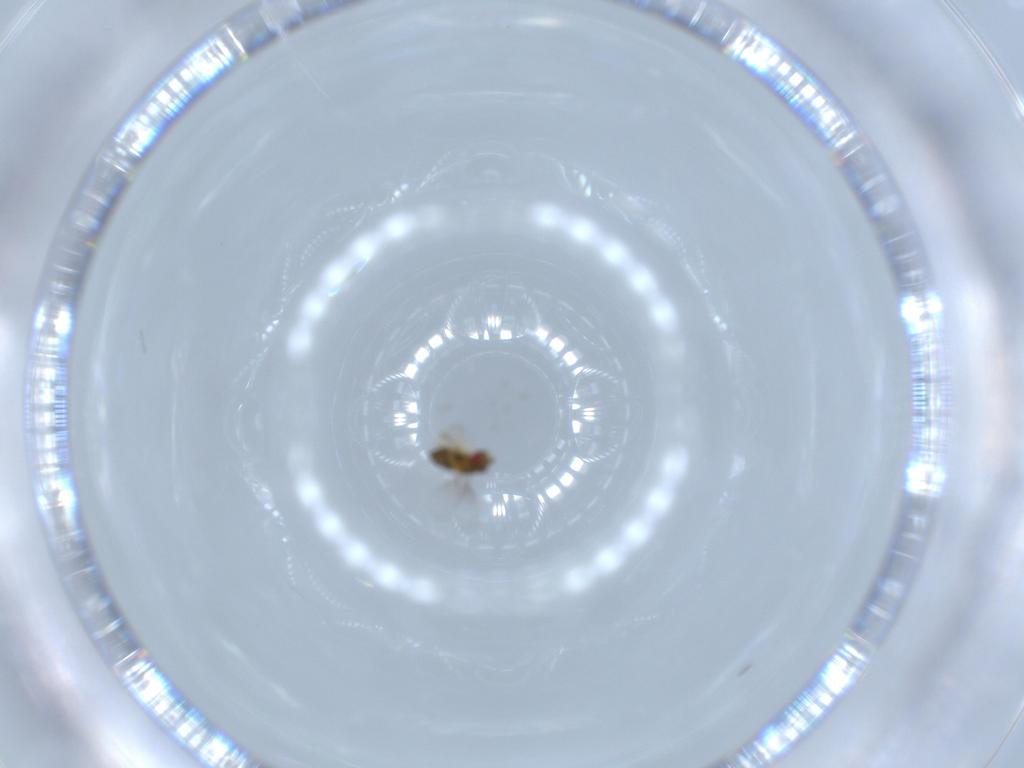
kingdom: Animalia
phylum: Arthropoda
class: Insecta
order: Hymenoptera
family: Trichogrammatidae
